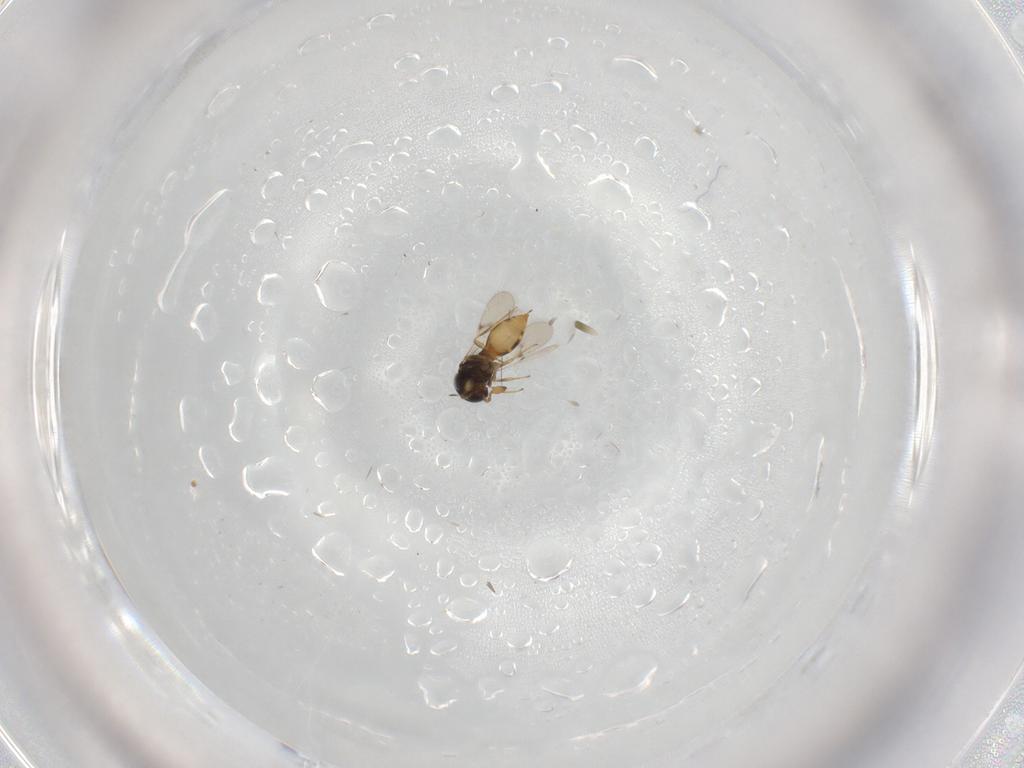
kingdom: Animalia
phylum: Arthropoda
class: Insecta
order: Hymenoptera
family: Scelionidae
